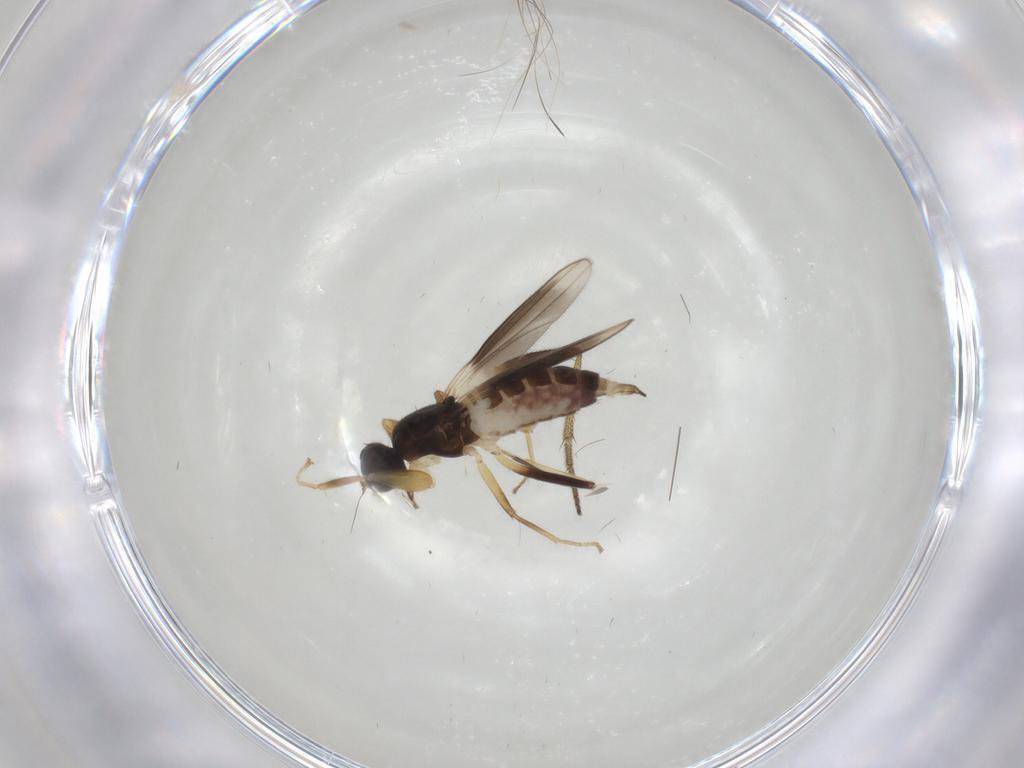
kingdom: Animalia
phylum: Arthropoda
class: Insecta
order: Diptera
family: Hybotidae
